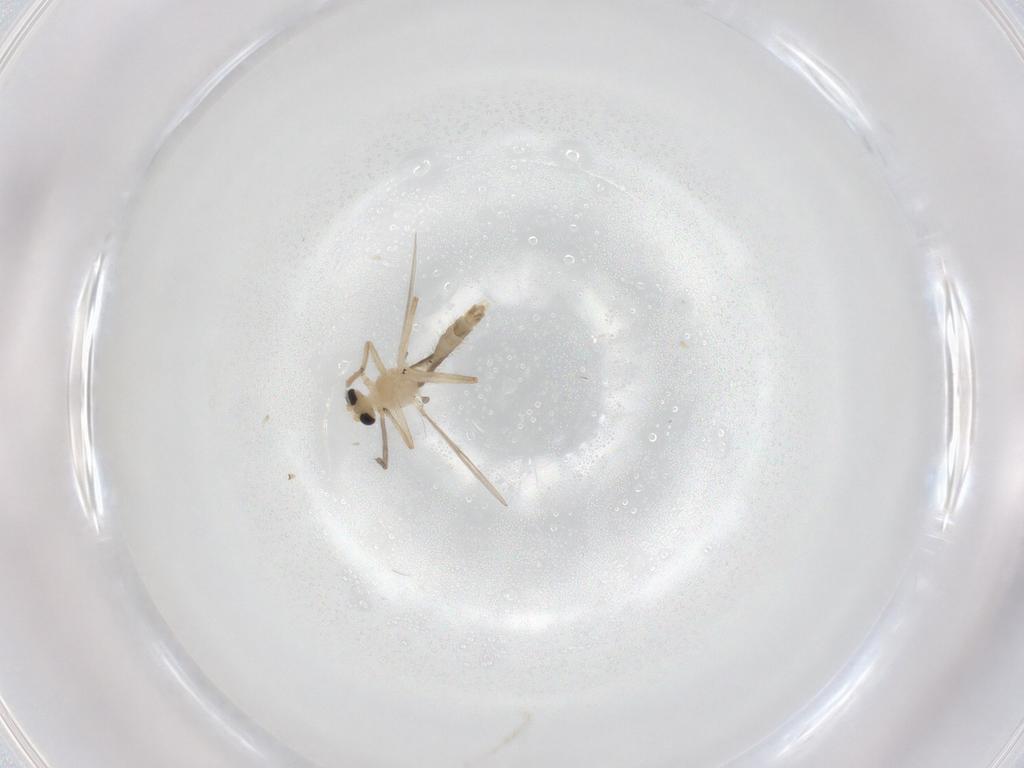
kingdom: Animalia
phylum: Arthropoda
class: Insecta
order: Diptera
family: Chironomidae
